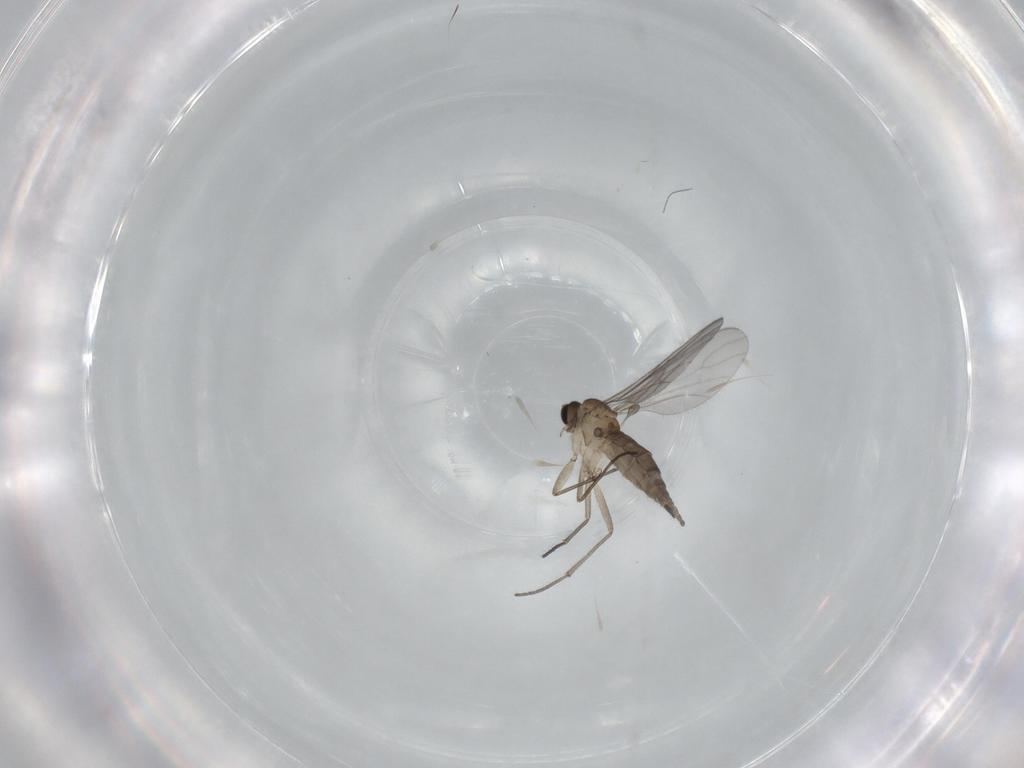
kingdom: Animalia
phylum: Arthropoda
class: Insecta
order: Diptera
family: Sciaridae
